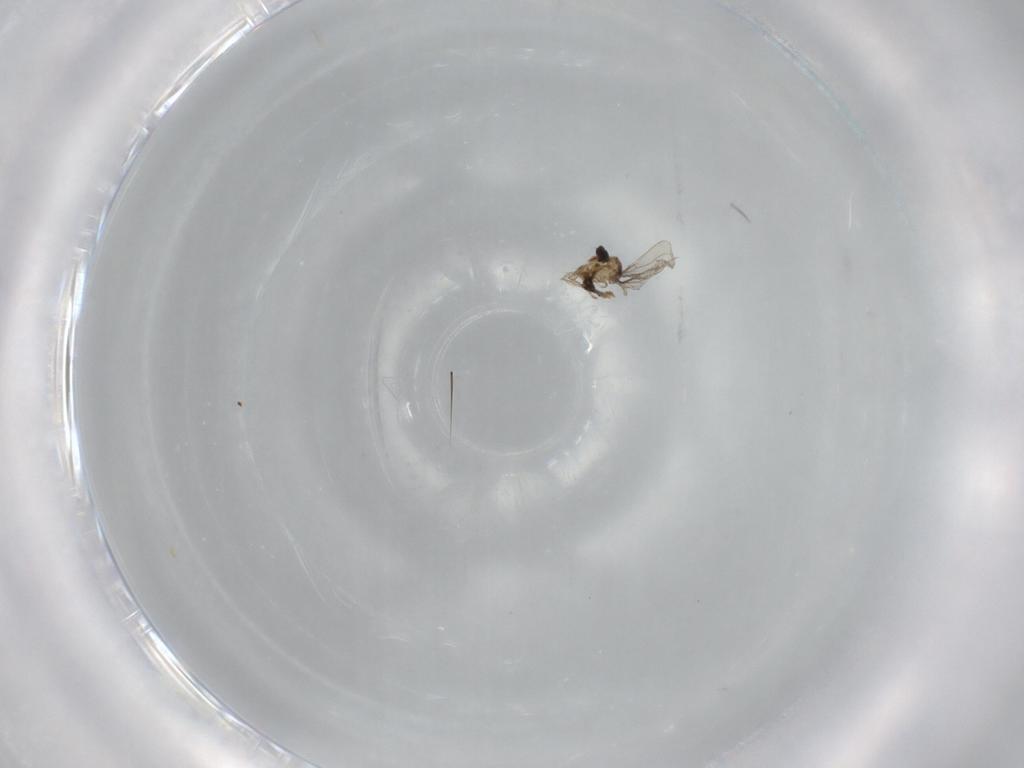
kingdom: Animalia
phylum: Arthropoda
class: Insecta
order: Diptera
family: Cecidomyiidae
